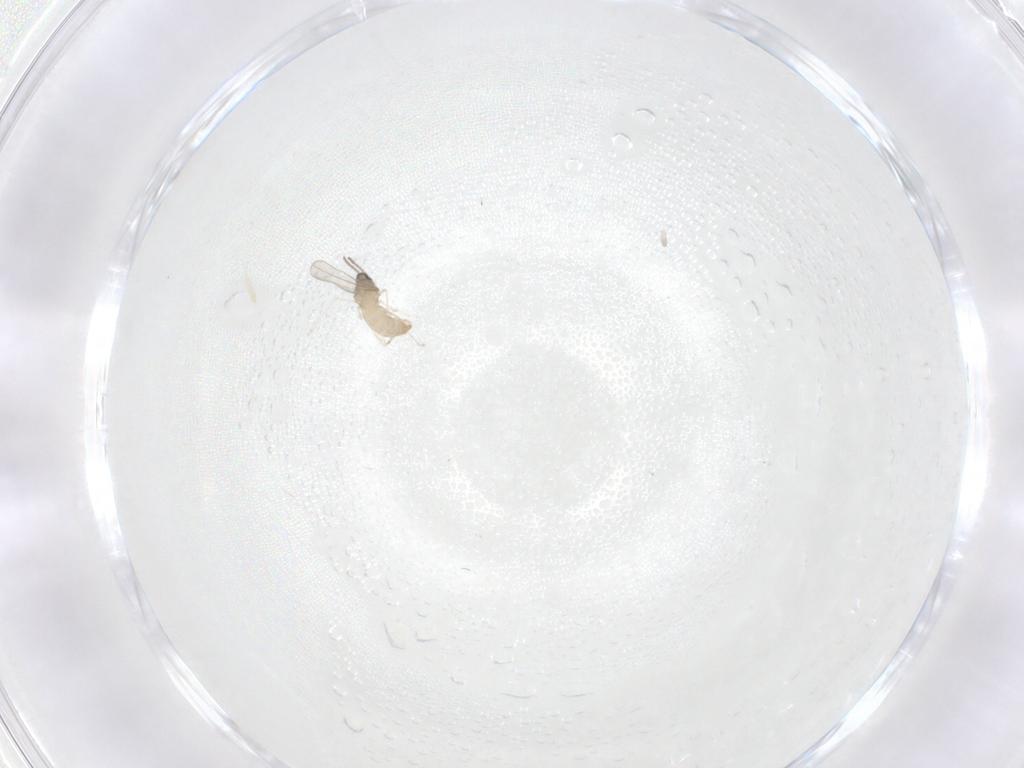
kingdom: Animalia
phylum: Arthropoda
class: Insecta
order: Diptera
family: Cecidomyiidae
